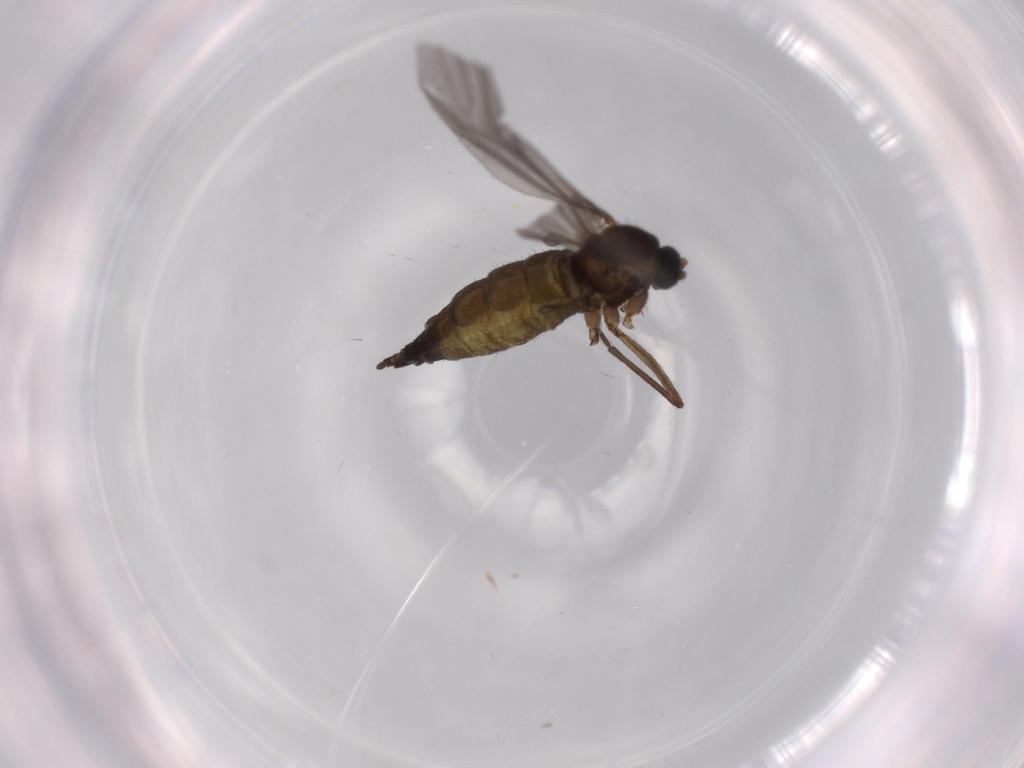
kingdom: Animalia
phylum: Arthropoda
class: Insecta
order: Diptera
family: Sciaridae
